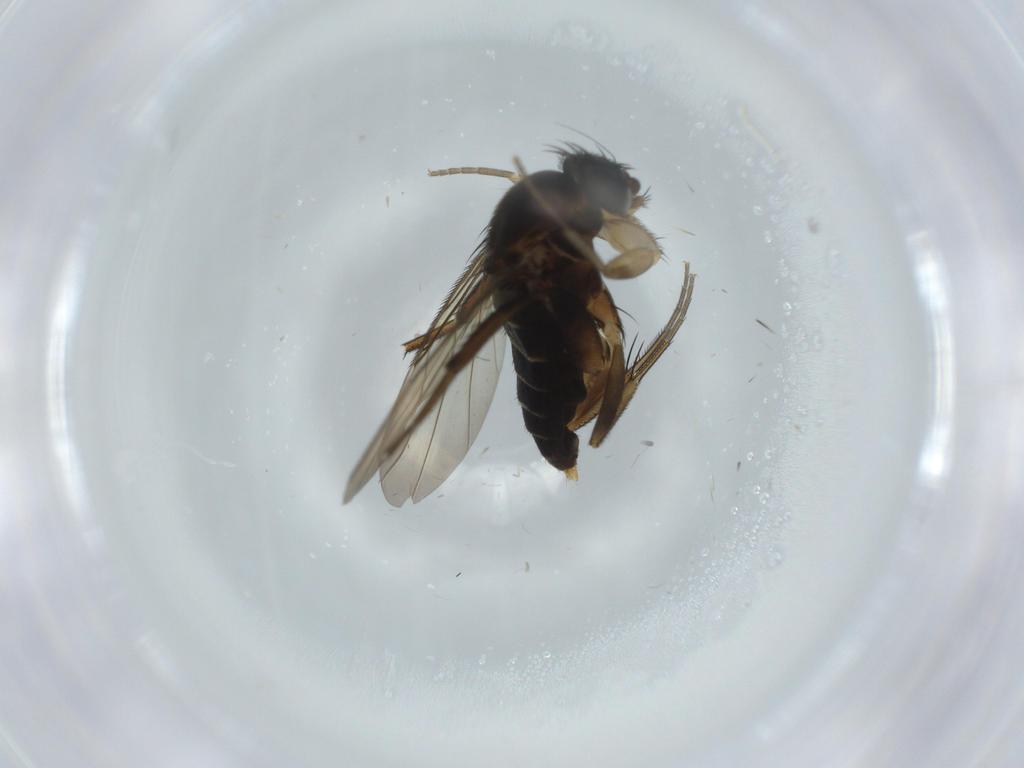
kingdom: Animalia
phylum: Arthropoda
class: Insecta
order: Diptera
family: Phoridae
